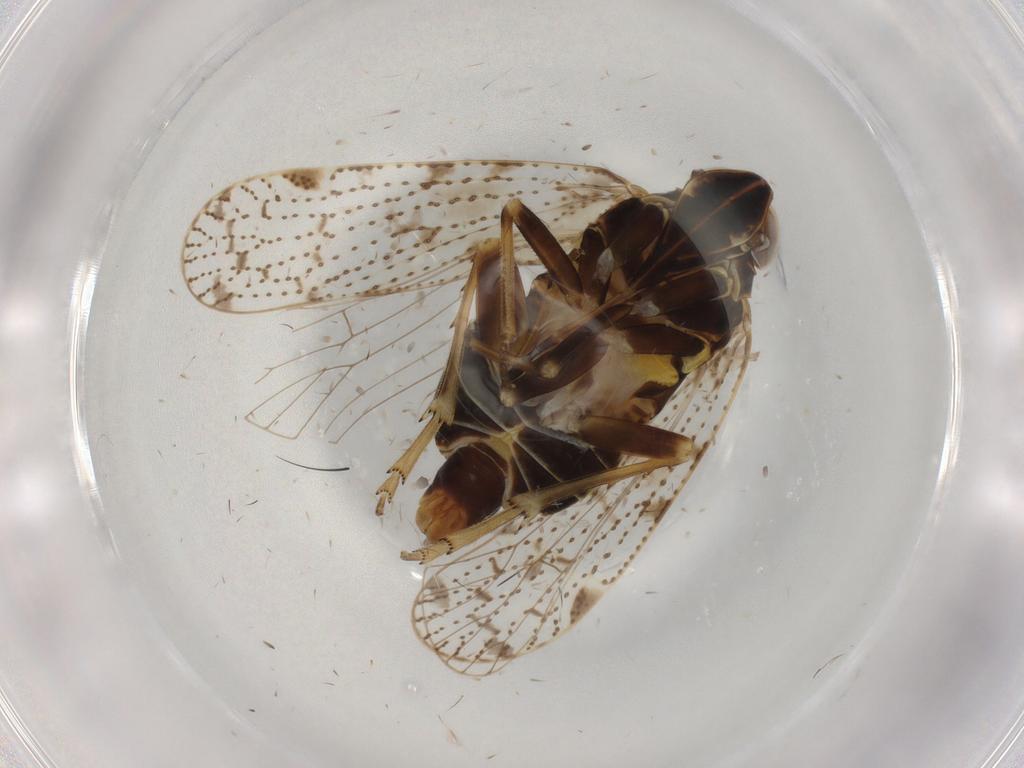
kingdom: Animalia
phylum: Arthropoda
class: Insecta
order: Hemiptera
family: Cixiidae
